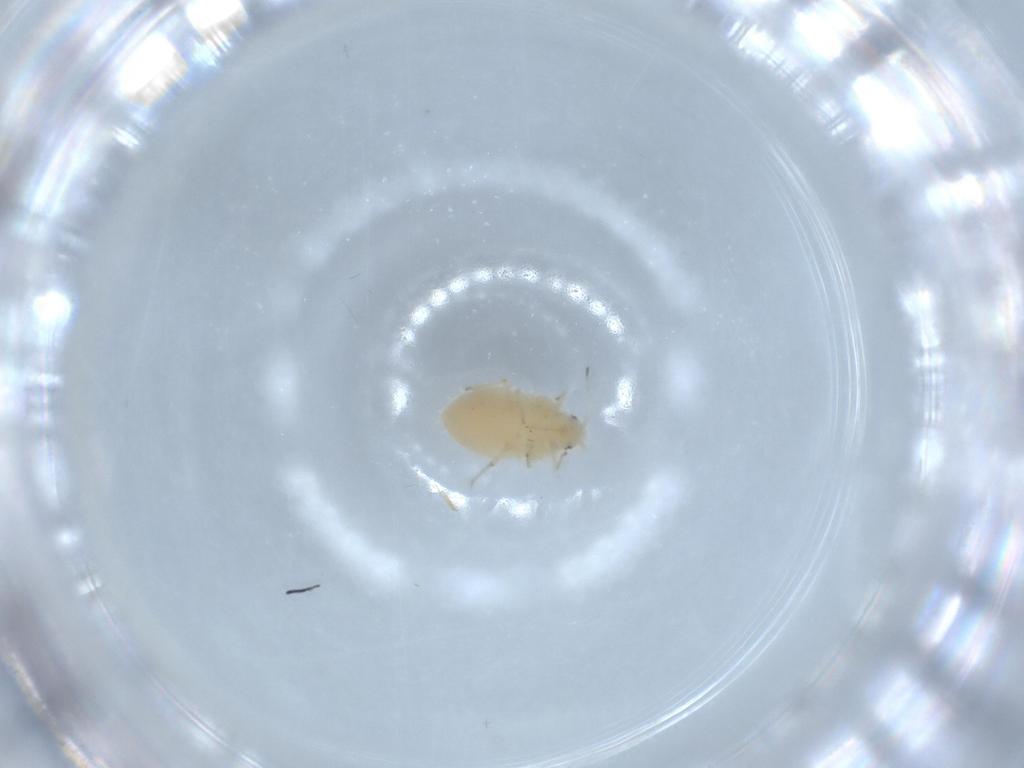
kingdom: Animalia
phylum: Arthropoda
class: Insecta
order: Hemiptera
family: Aphididae
